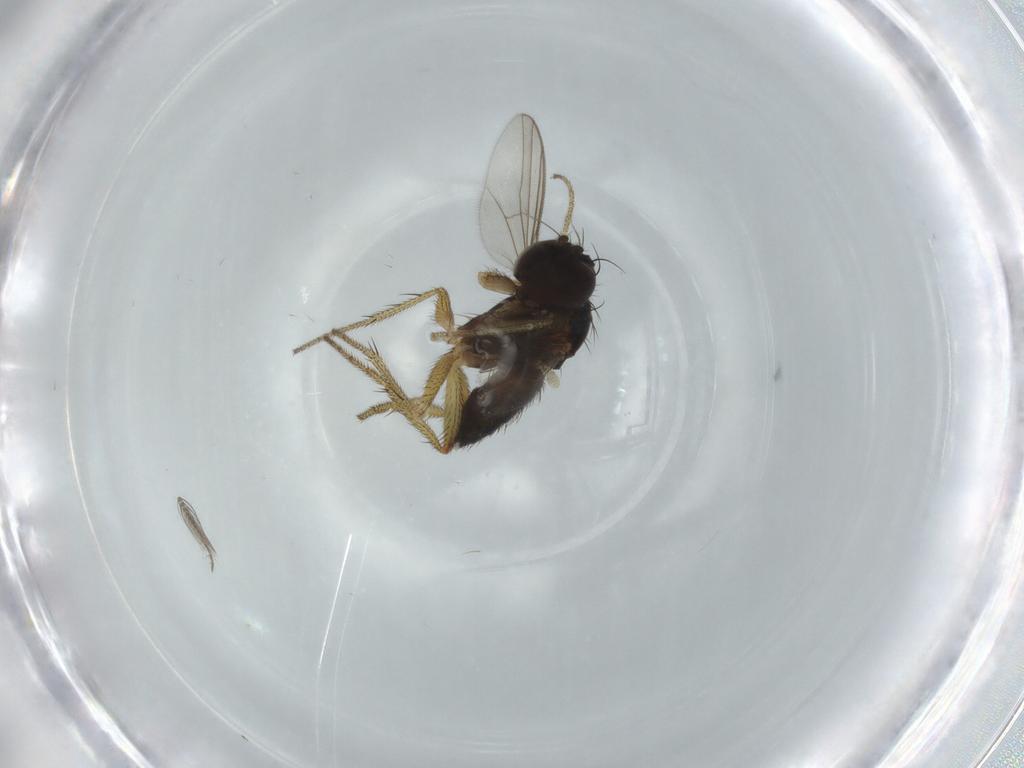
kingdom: Animalia
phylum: Arthropoda
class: Insecta
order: Diptera
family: Dolichopodidae
